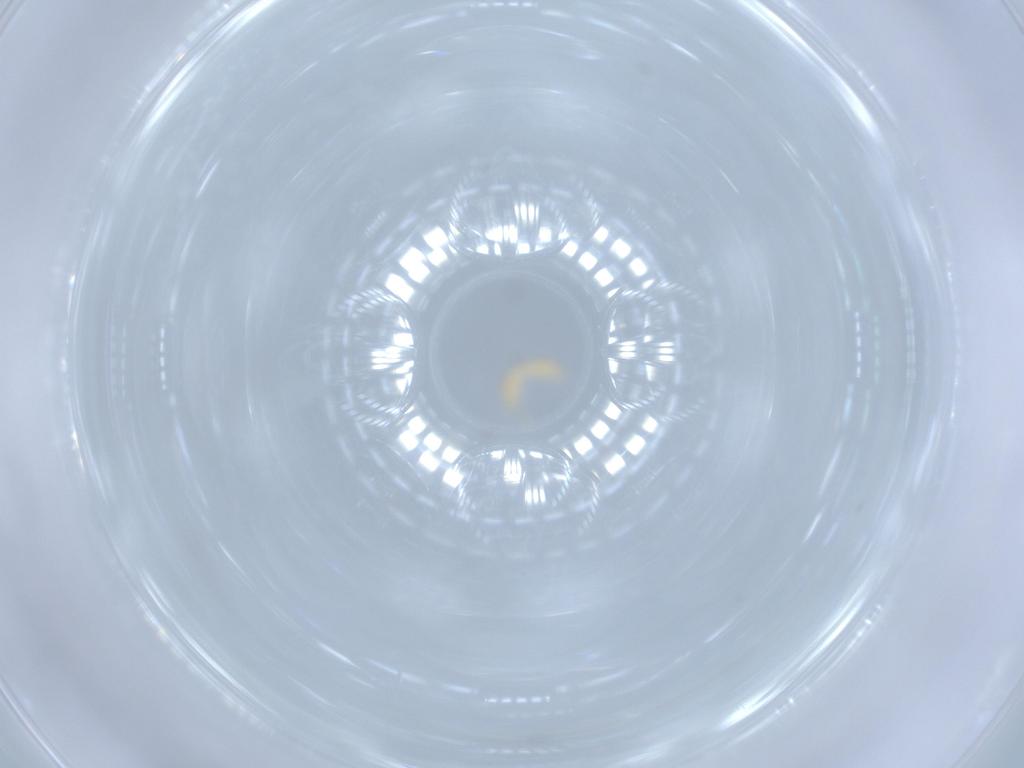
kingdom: Animalia
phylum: Arthropoda
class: Insecta
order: Coleoptera
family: Cantharidae
